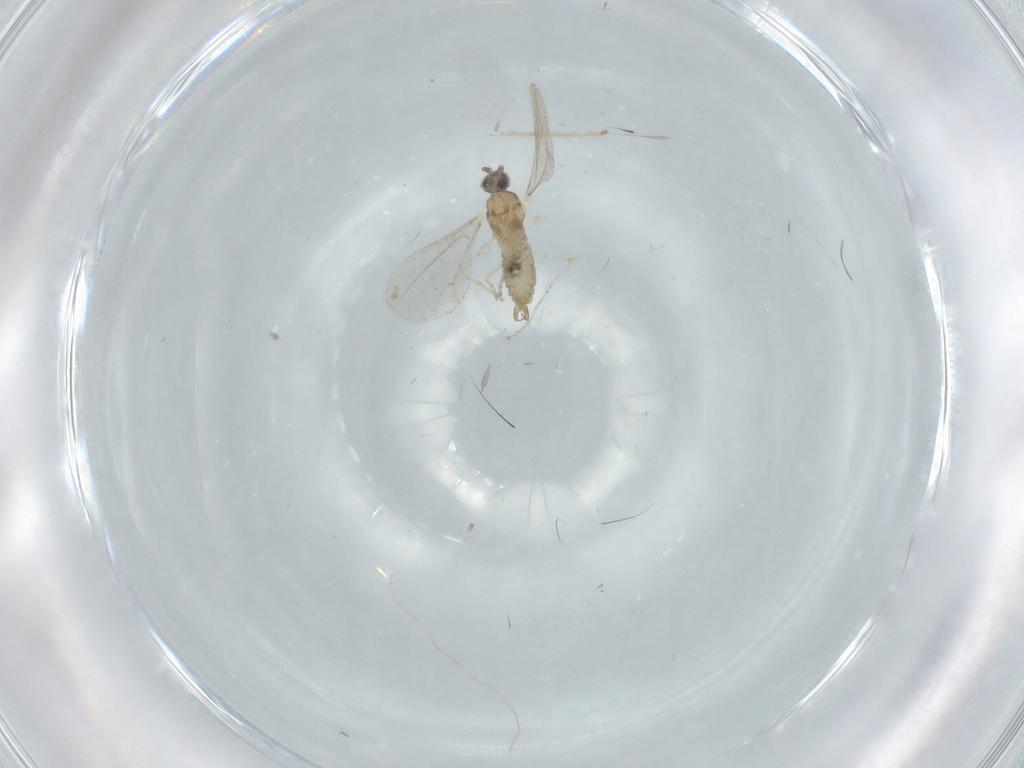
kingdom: Animalia
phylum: Arthropoda
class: Insecta
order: Diptera
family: Cecidomyiidae
